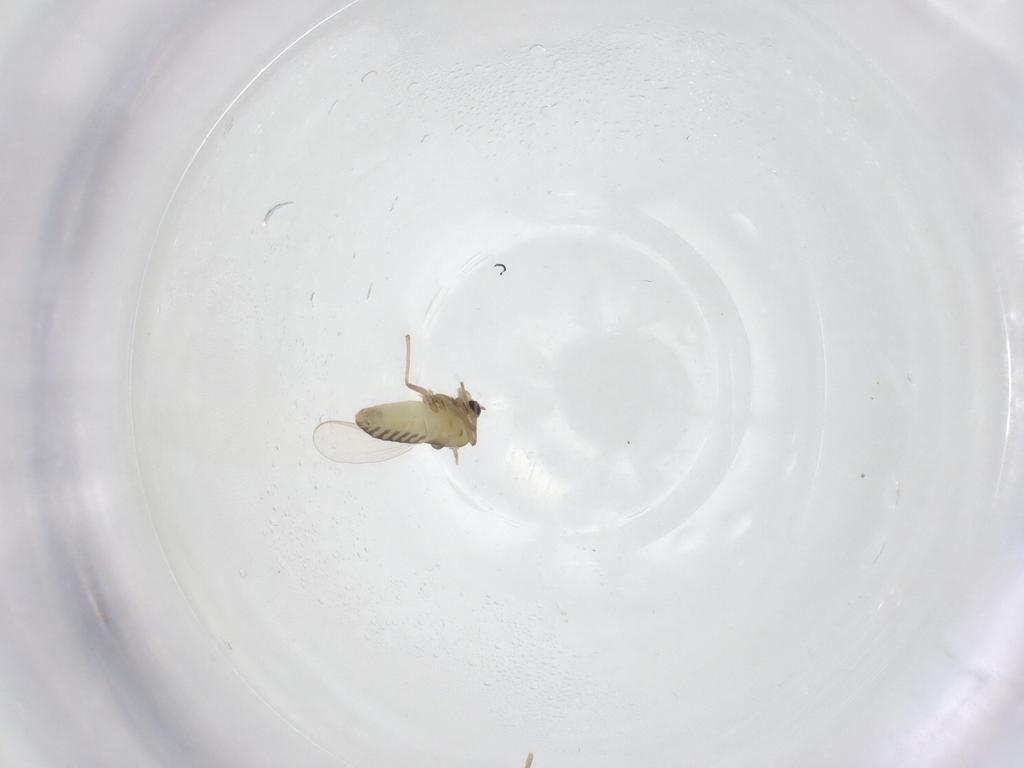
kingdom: Animalia
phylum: Arthropoda
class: Insecta
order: Diptera
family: Chironomidae
